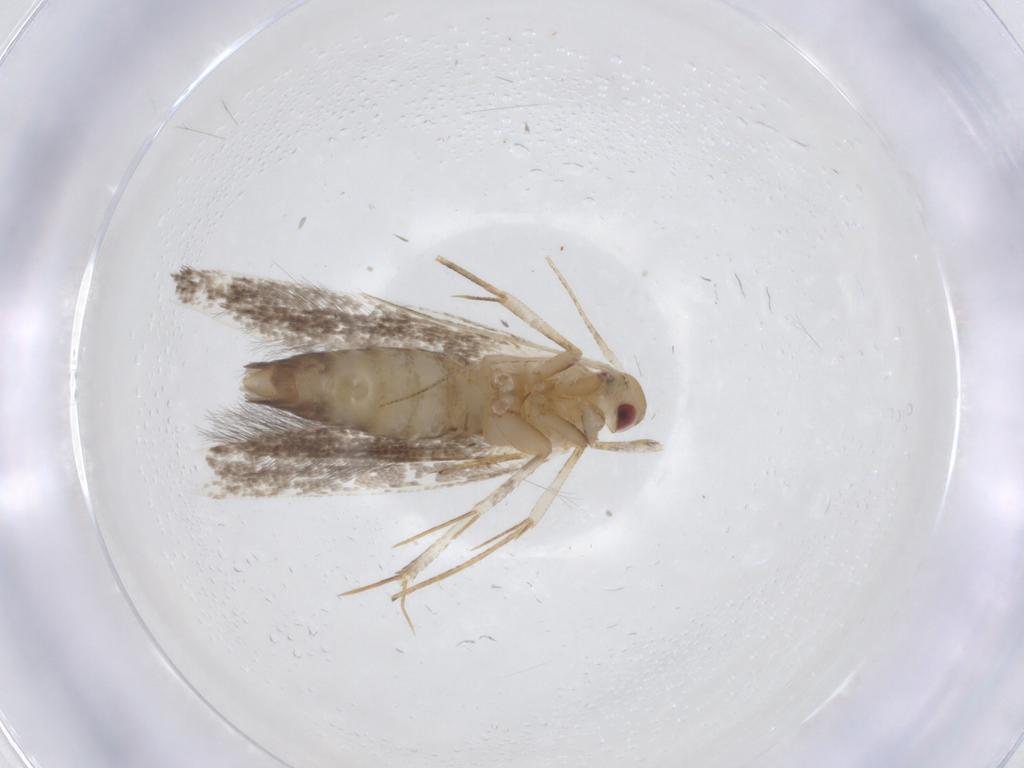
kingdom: Animalia
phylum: Arthropoda
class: Insecta
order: Lepidoptera
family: Cosmopterigidae
